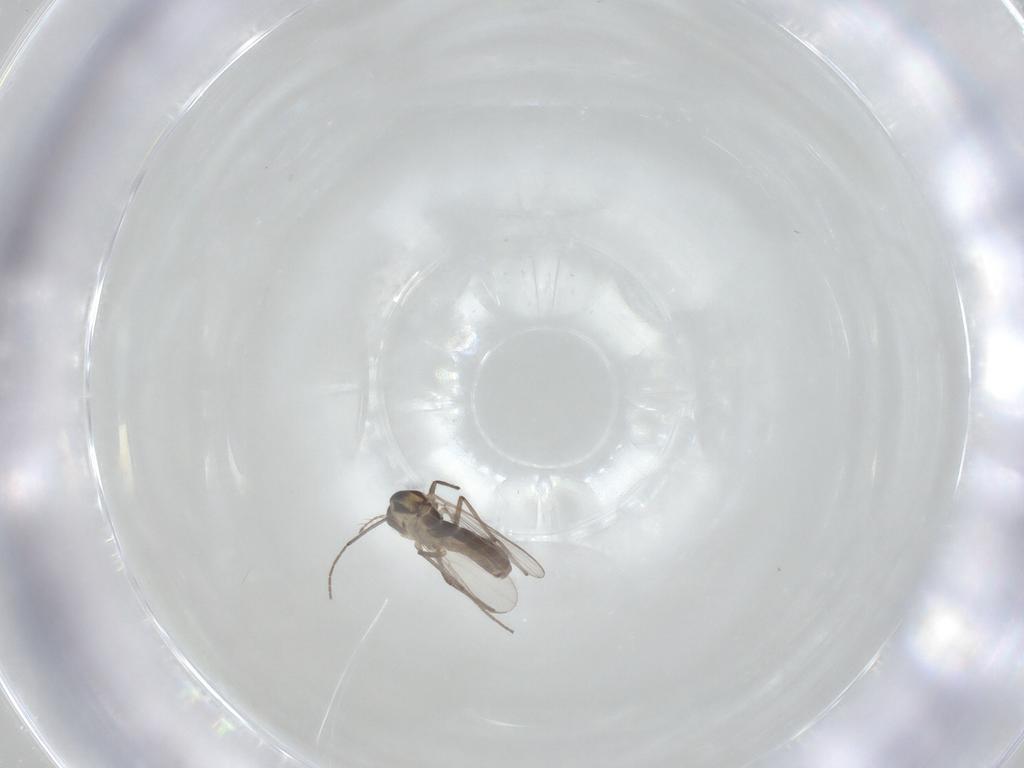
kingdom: Animalia
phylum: Arthropoda
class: Insecta
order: Diptera
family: Chironomidae
